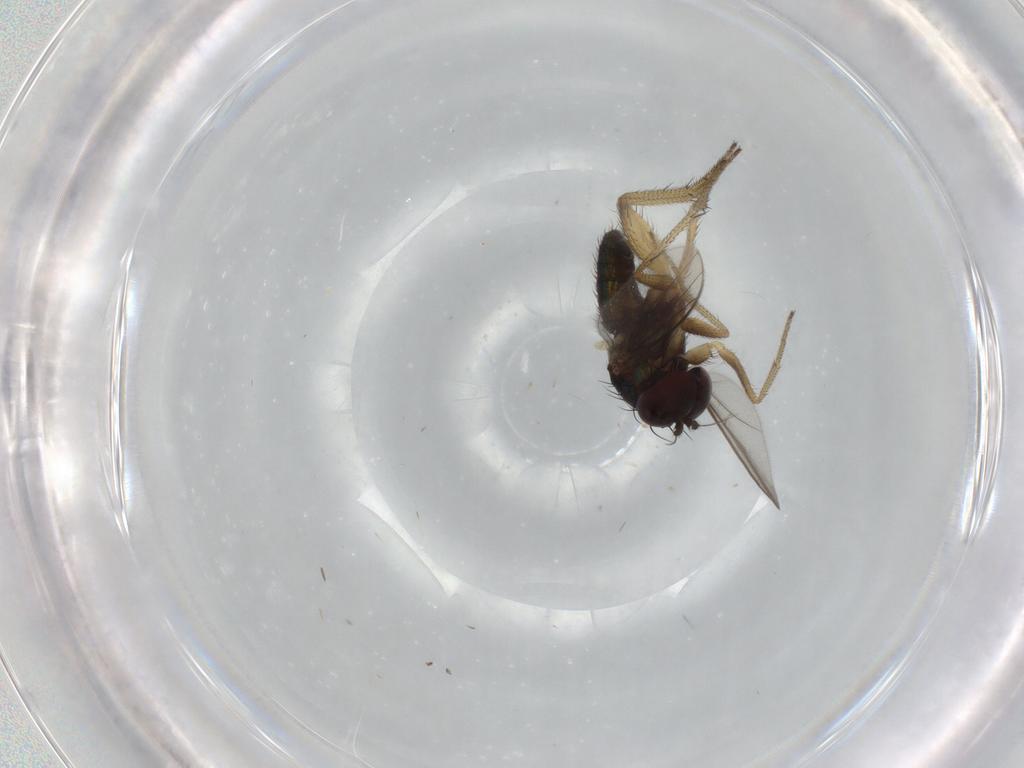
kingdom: Animalia
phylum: Arthropoda
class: Insecta
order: Diptera
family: Dolichopodidae
